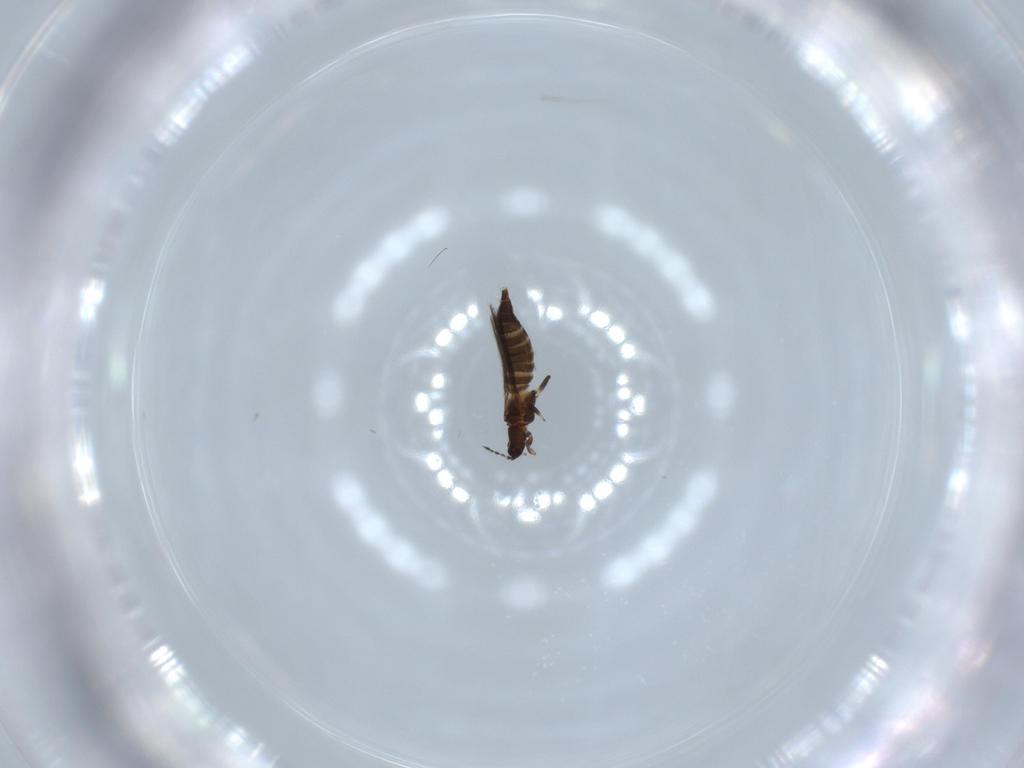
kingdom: Animalia
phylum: Arthropoda
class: Insecta
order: Thysanoptera
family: Thripidae
